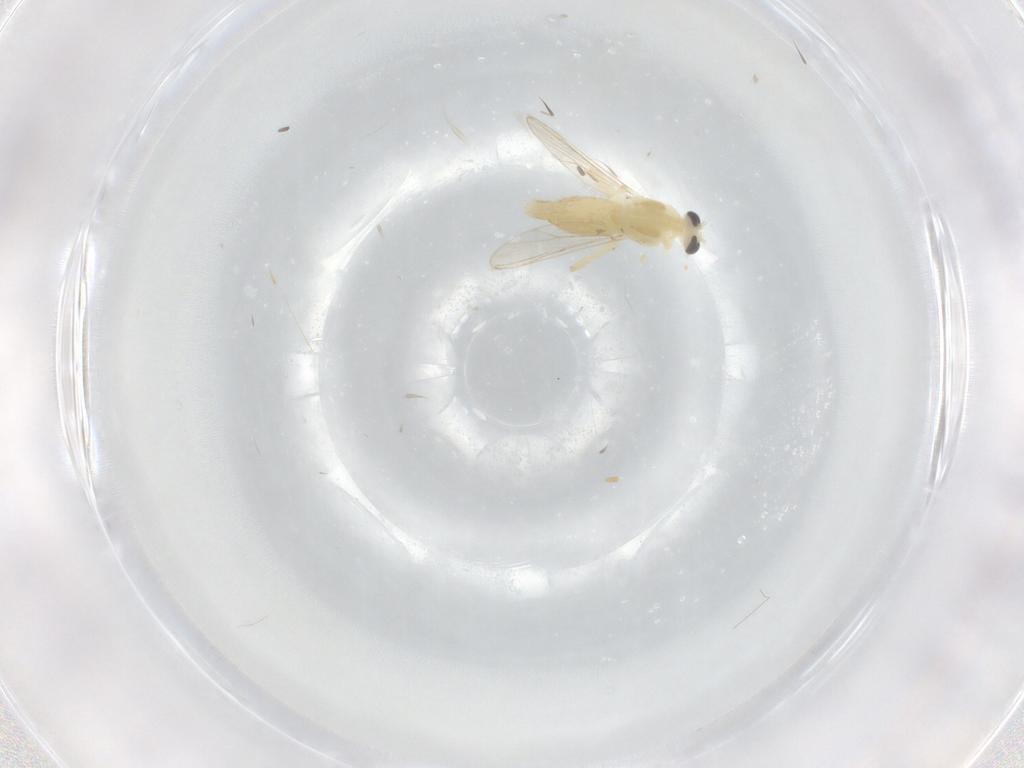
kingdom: Animalia
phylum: Arthropoda
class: Insecta
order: Diptera
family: Chironomidae
